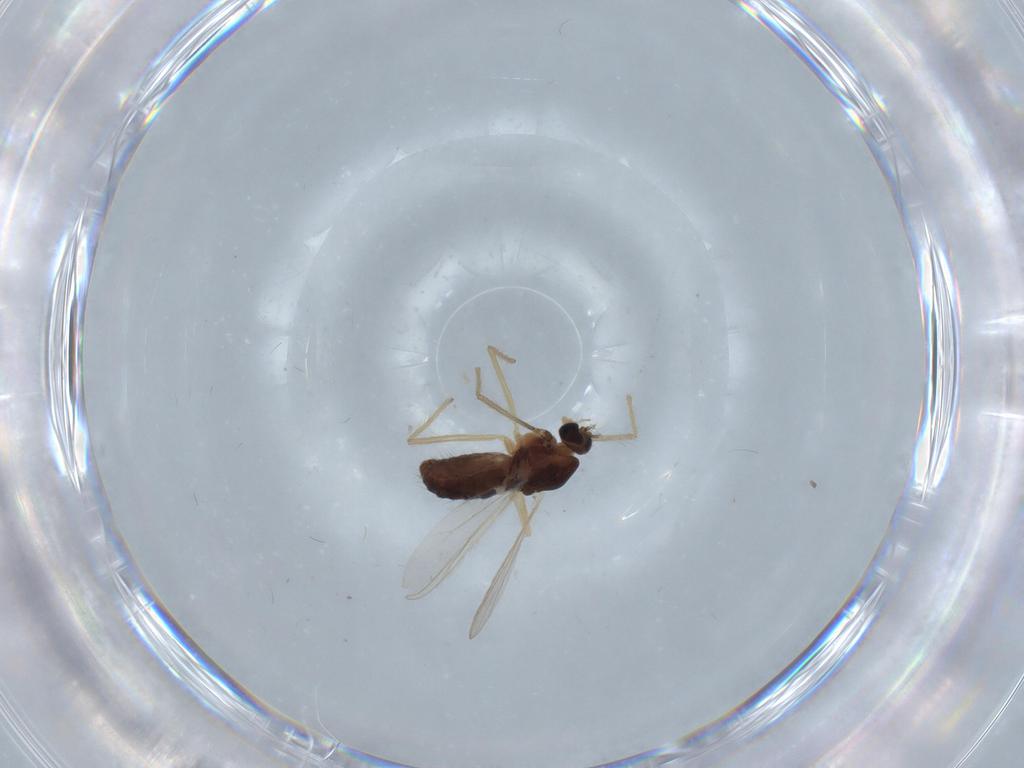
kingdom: Animalia
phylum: Arthropoda
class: Insecta
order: Diptera
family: Chironomidae
